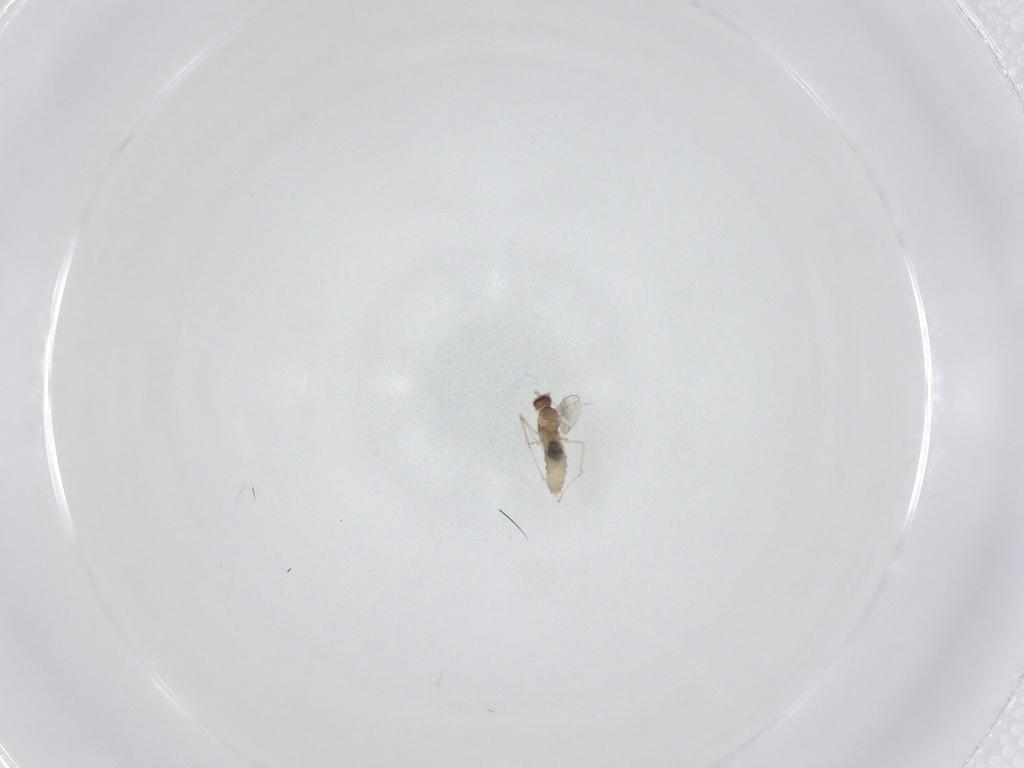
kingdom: Animalia
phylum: Arthropoda
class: Insecta
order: Diptera
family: Cecidomyiidae
